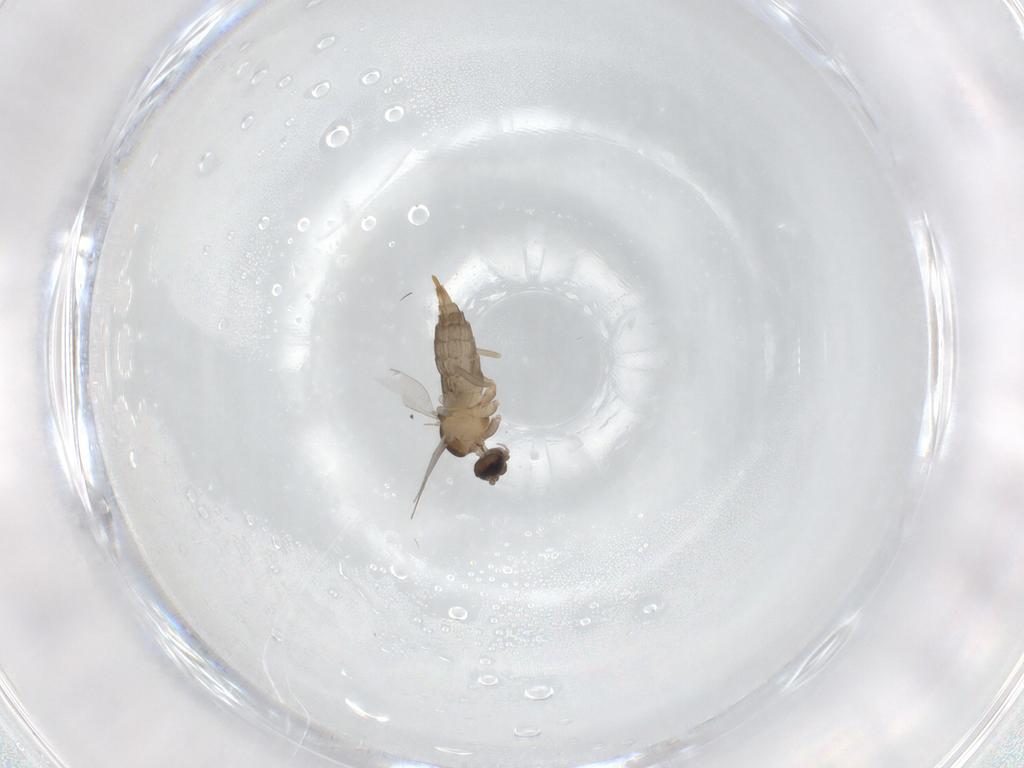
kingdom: Animalia
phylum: Arthropoda
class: Insecta
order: Diptera
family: Cecidomyiidae
